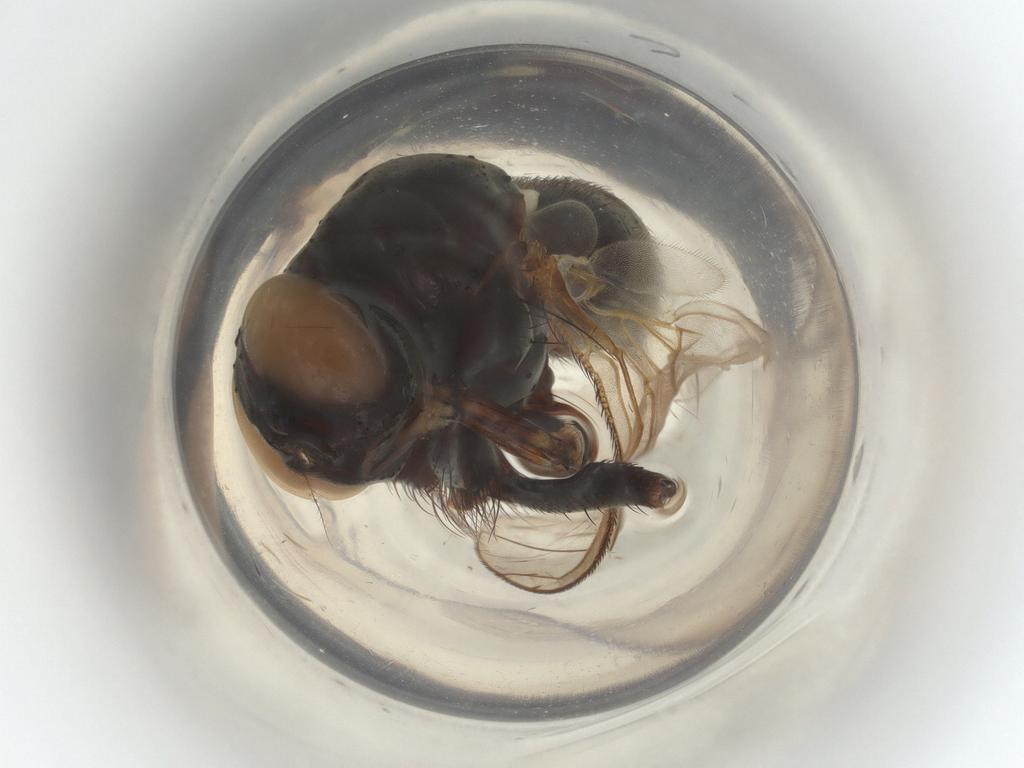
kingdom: Animalia
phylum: Arthropoda
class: Insecta
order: Diptera
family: Muscidae
